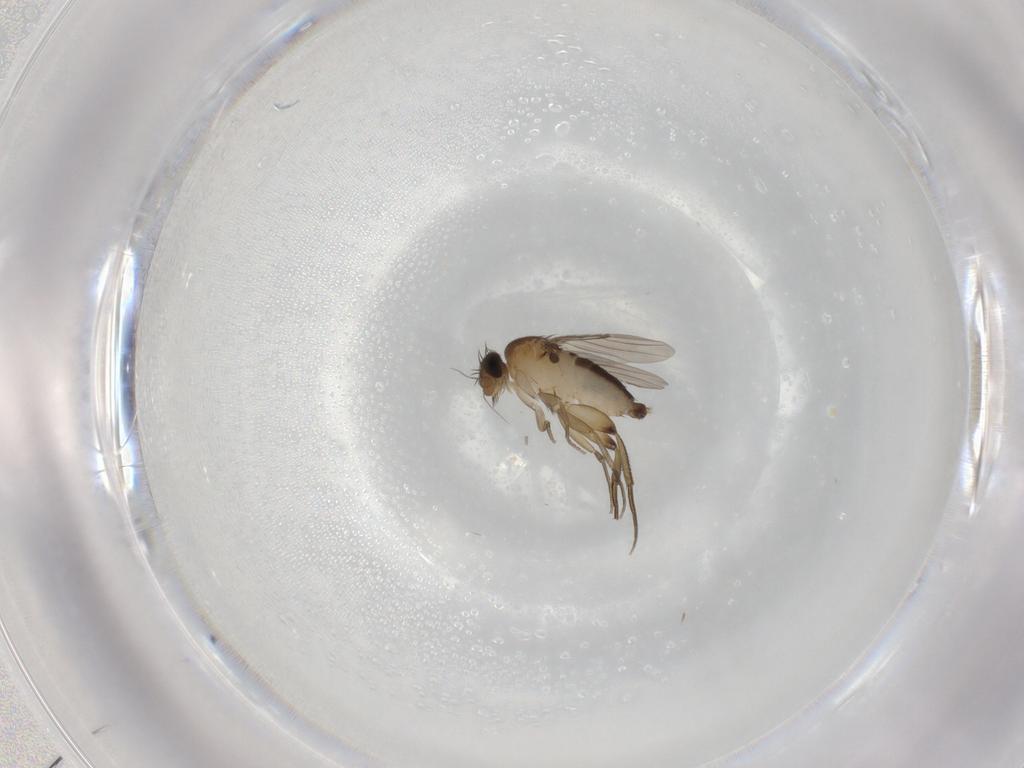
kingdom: Animalia
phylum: Arthropoda
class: Insecta
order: Diptera
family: Phoridae
